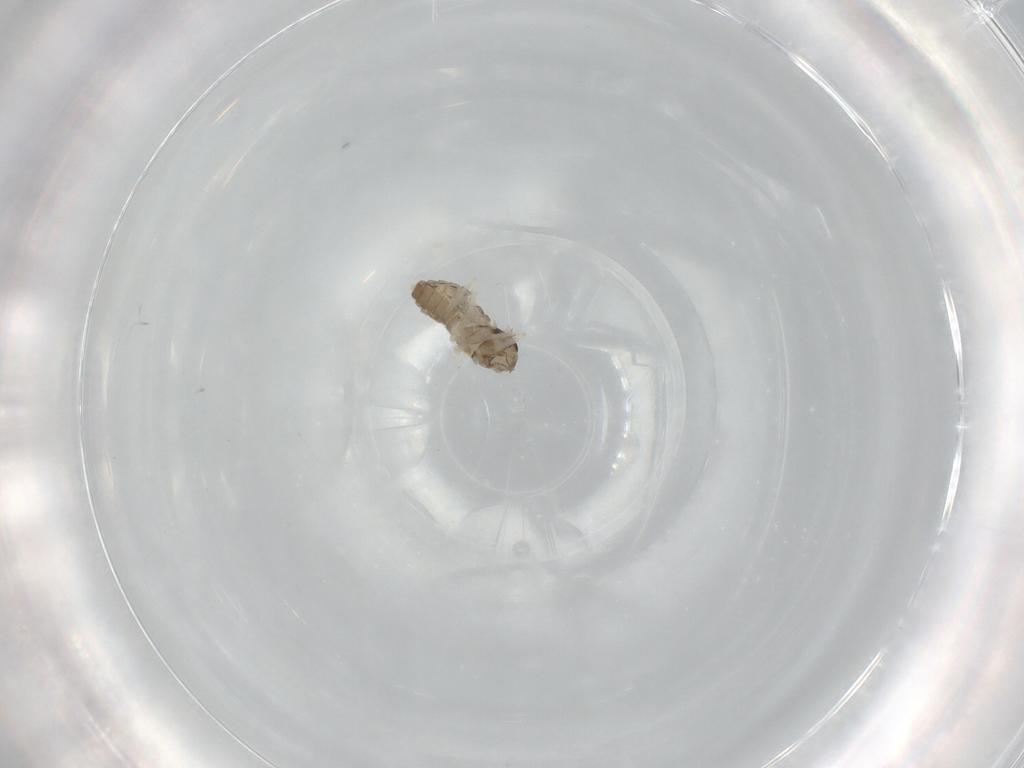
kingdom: Animalia
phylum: Arthropoda
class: Insecta
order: Diptera
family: Cecidomyiidae
